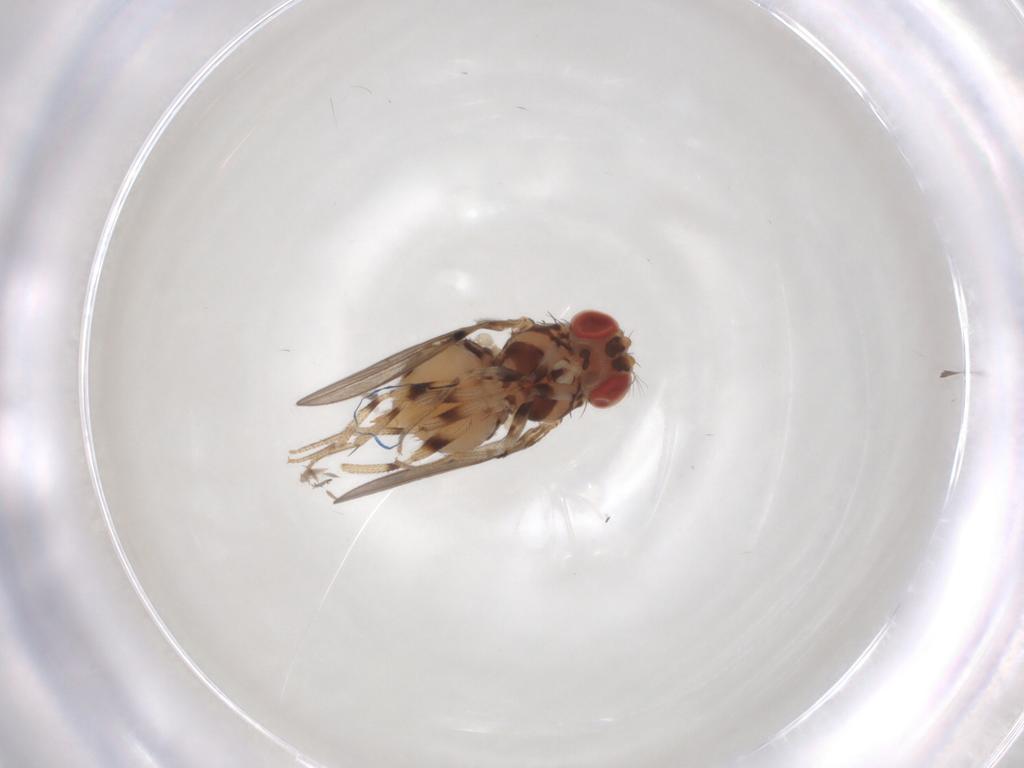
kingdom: Animalia
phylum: Arthropoda
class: Insecta
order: Diptera
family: Drosophilidae
